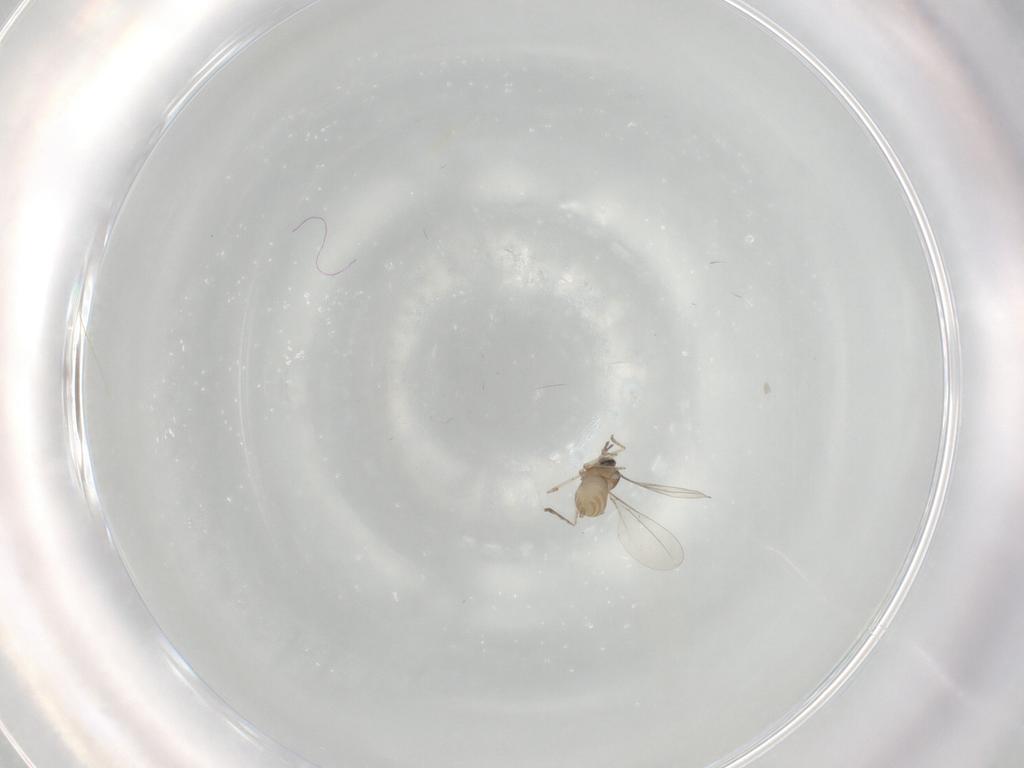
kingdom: Animalia
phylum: Arthropoda
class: Insecta
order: Diptera
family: Cecidomyiidae
